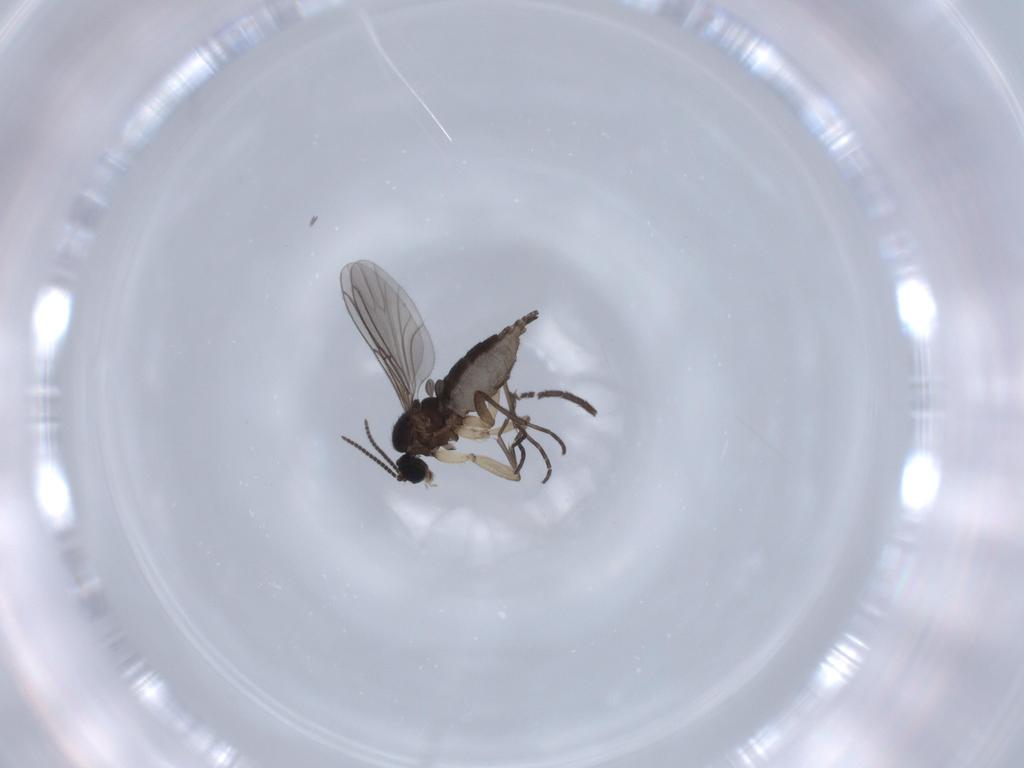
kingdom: Animalia
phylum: Arthropoda
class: Insecta
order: Diptera
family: Sciaridae
